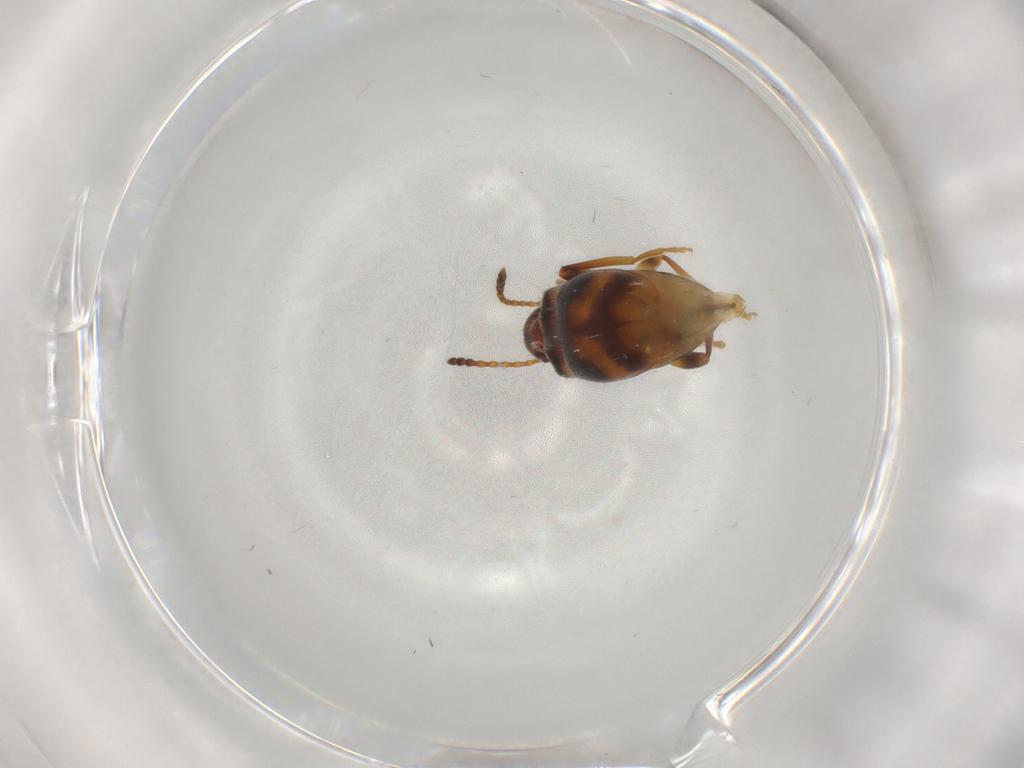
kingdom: Animalia
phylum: Arthropoda
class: Insecta
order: Coleoptera
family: Anthicidae
